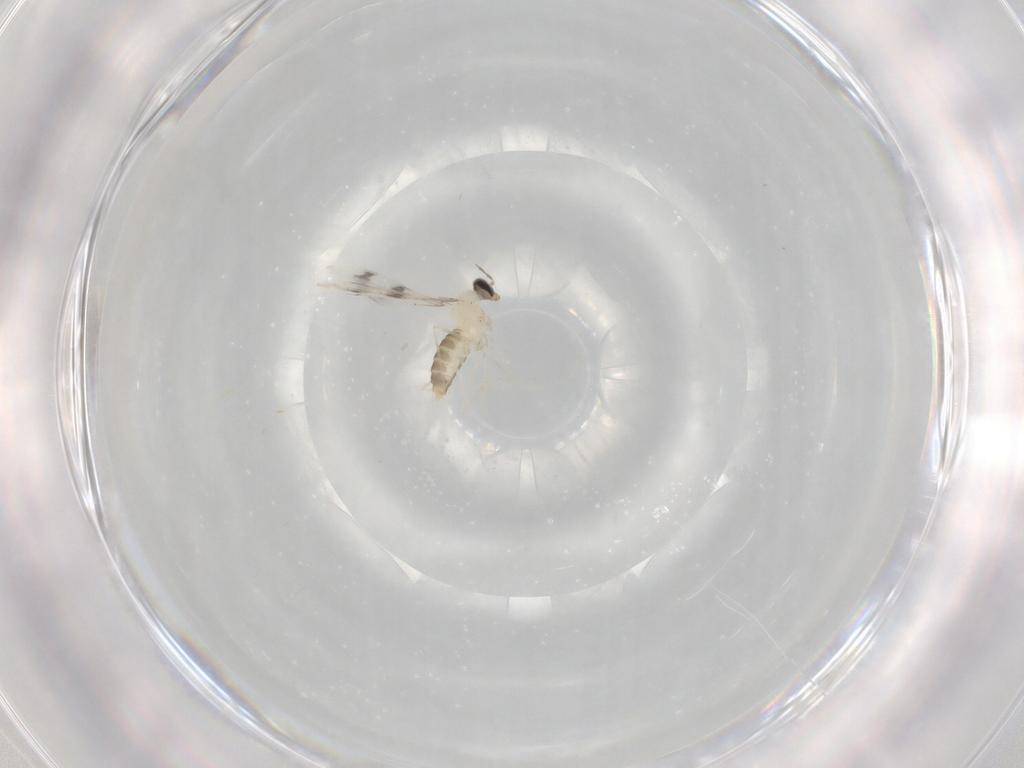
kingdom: Animalia
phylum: Arthropoda
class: Insecta
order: Diptera
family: Cecidomyiidae
